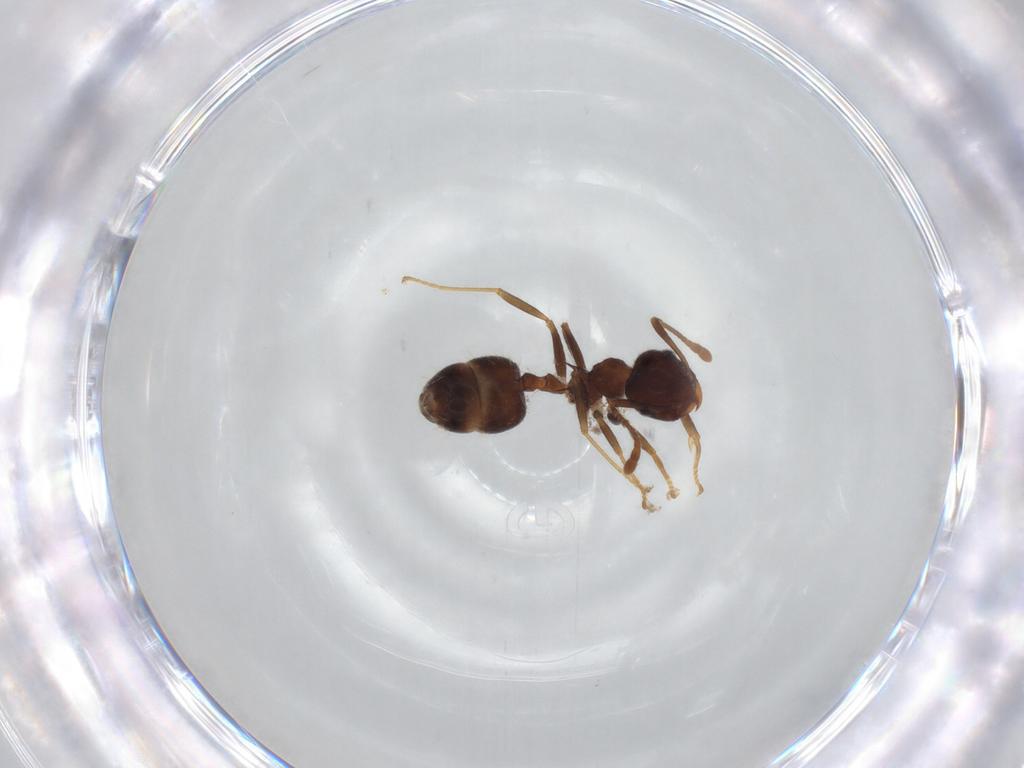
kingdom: Animalia
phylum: Arthropoda
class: Insecta
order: Hymenoptera
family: Formicidae
